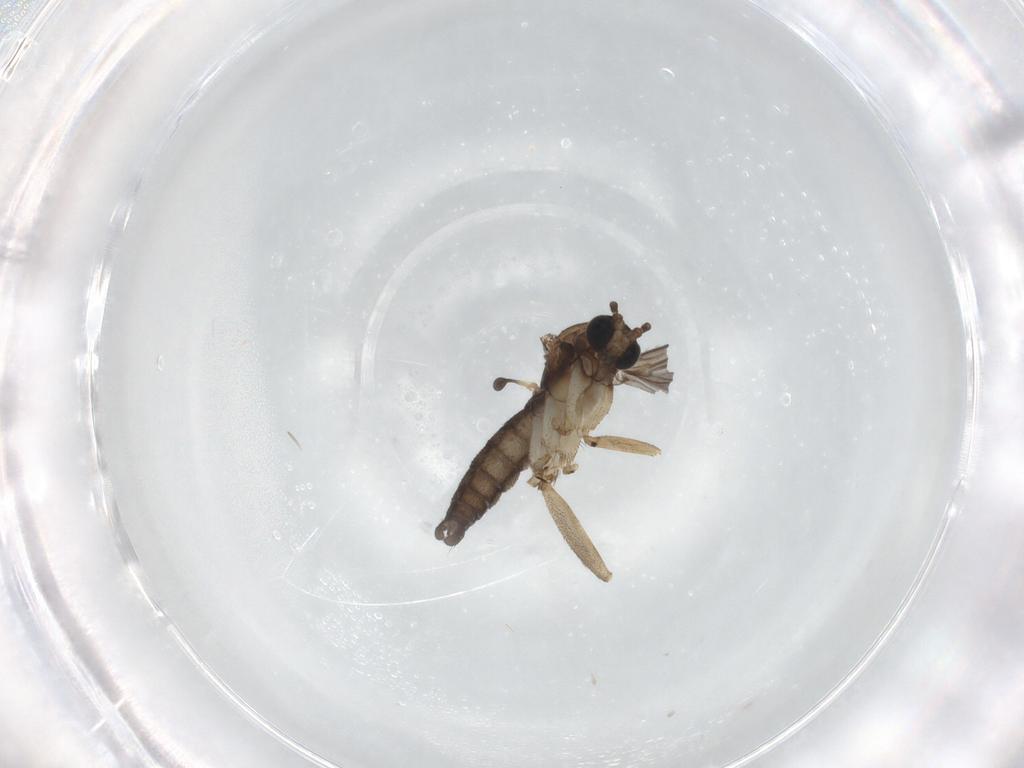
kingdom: Animalia
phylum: Arthropoda
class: Insecta
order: Diptera
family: Sciaridae
